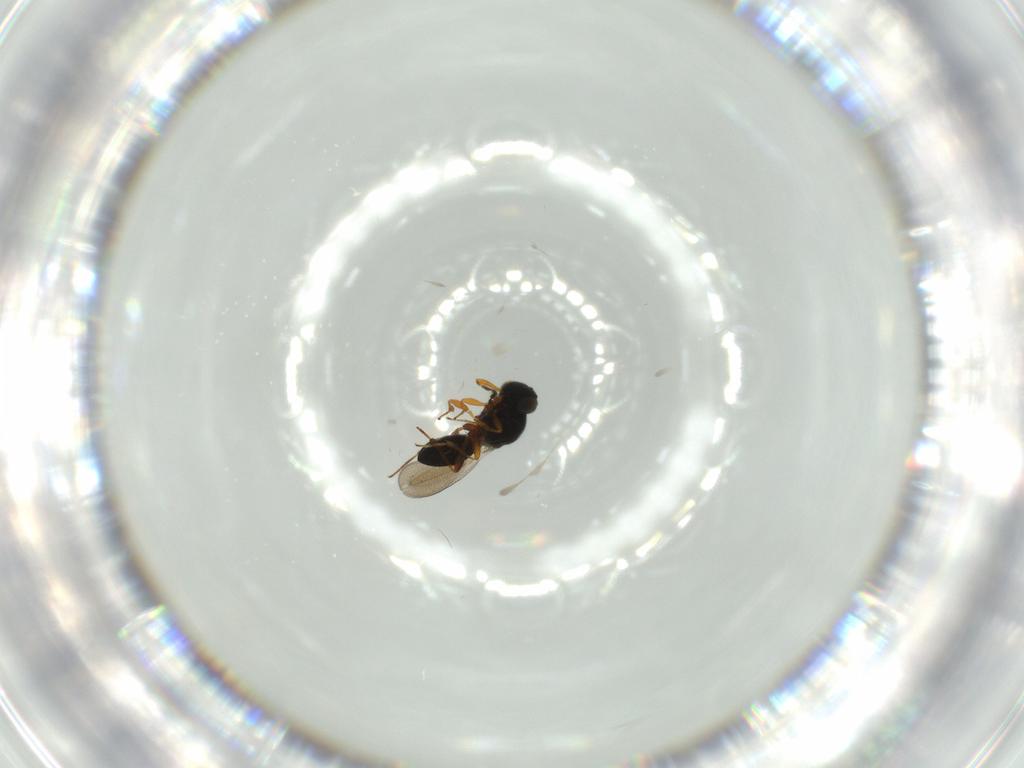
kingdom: Animalia
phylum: Arthropoda
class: Insecta
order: Hymenoptera
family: Platygastridae
